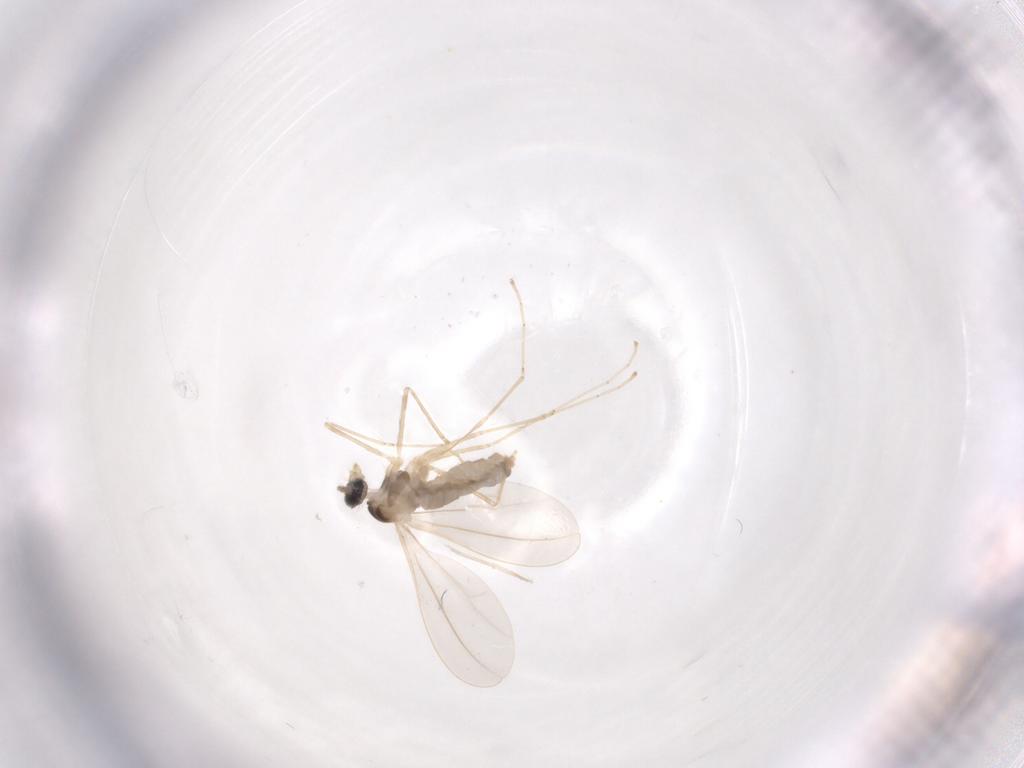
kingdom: Animalia
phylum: Arthropoda
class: Insecta
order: Diptera
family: Cecidomyiidae
